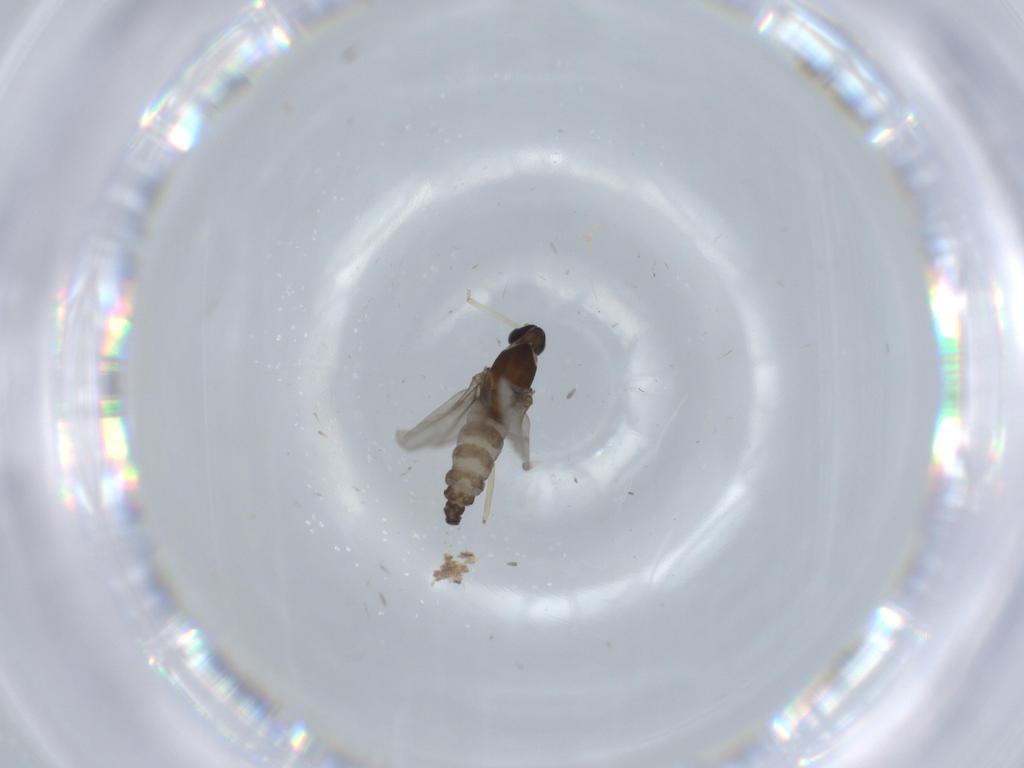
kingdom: Animalia
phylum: Arthropoda
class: Insecta
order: Diptera
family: Cecidomyiidae
